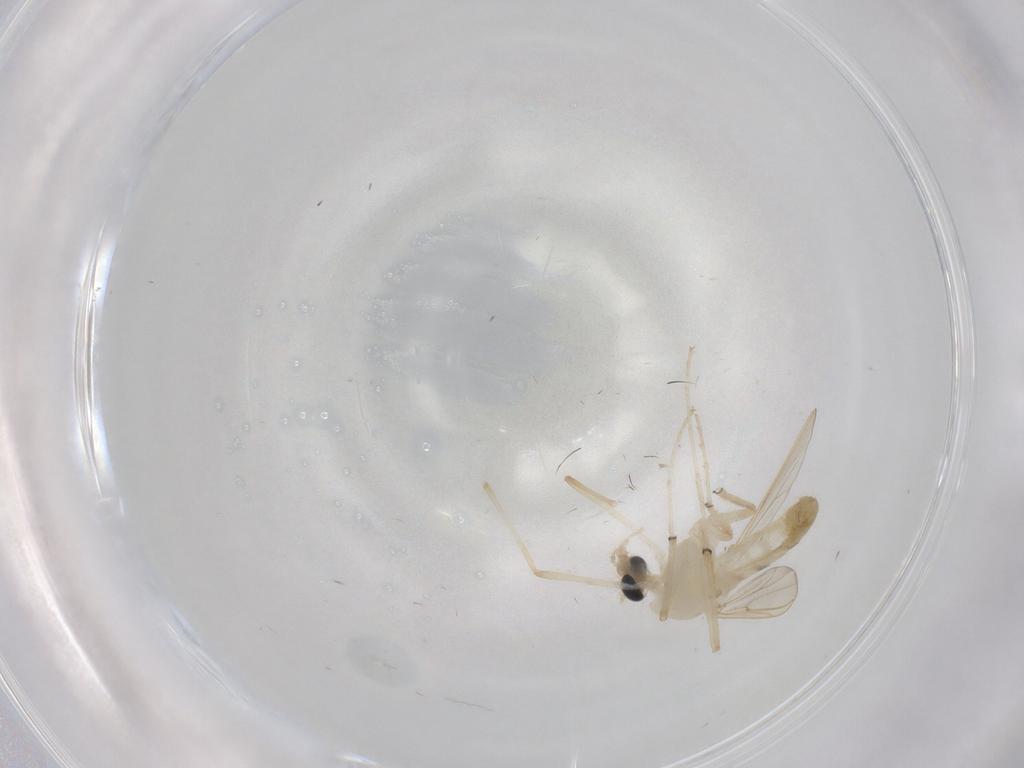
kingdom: Animalia
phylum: Arthropoda
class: Insecta
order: Diptera
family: Chironomidae
